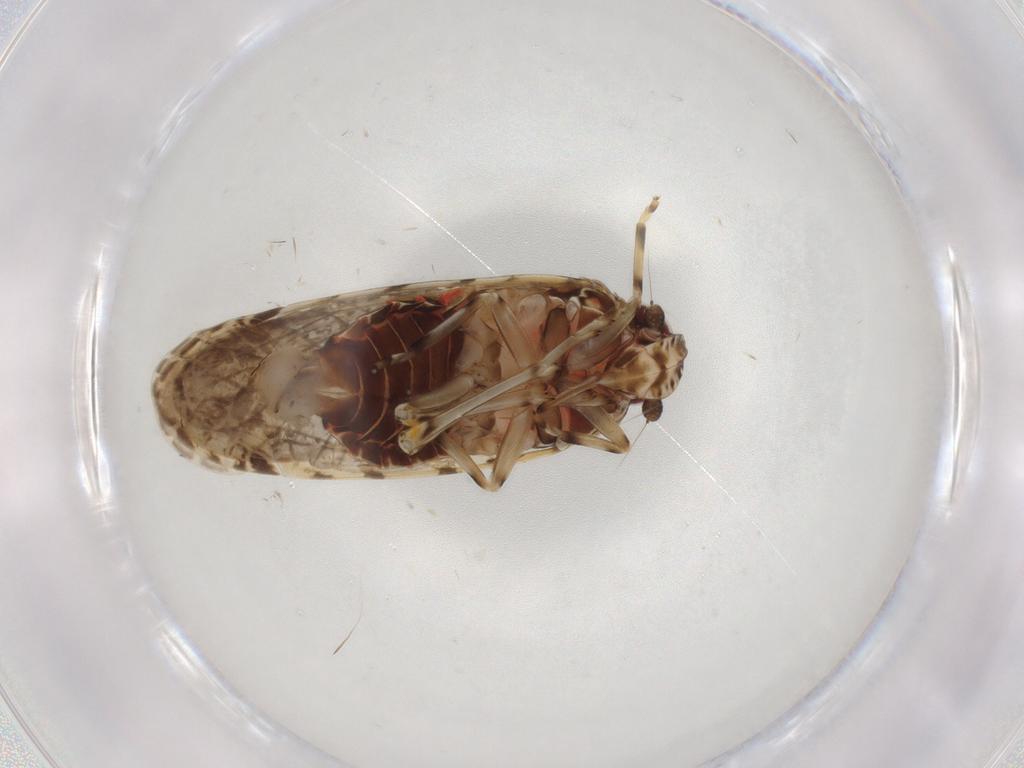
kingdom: Animalia
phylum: Arthropoda
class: Insecta
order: Hemiptera
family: Achilidae
